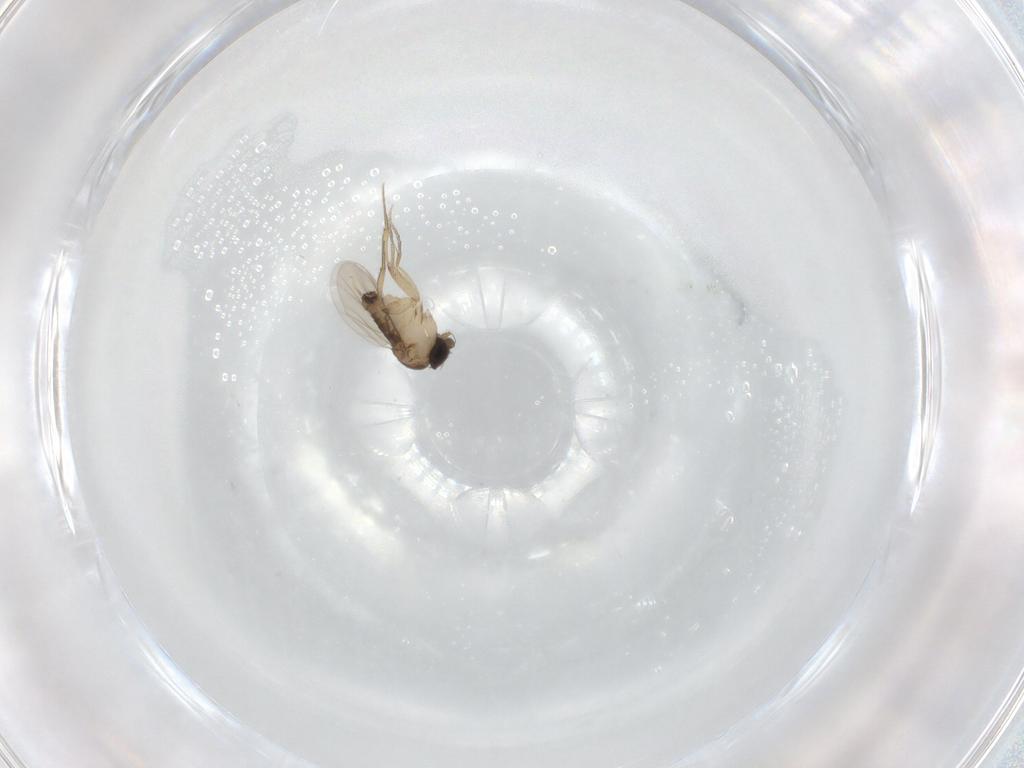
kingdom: Animalia
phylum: Arthropoda
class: Insecta
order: Diptera
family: Phoridae
